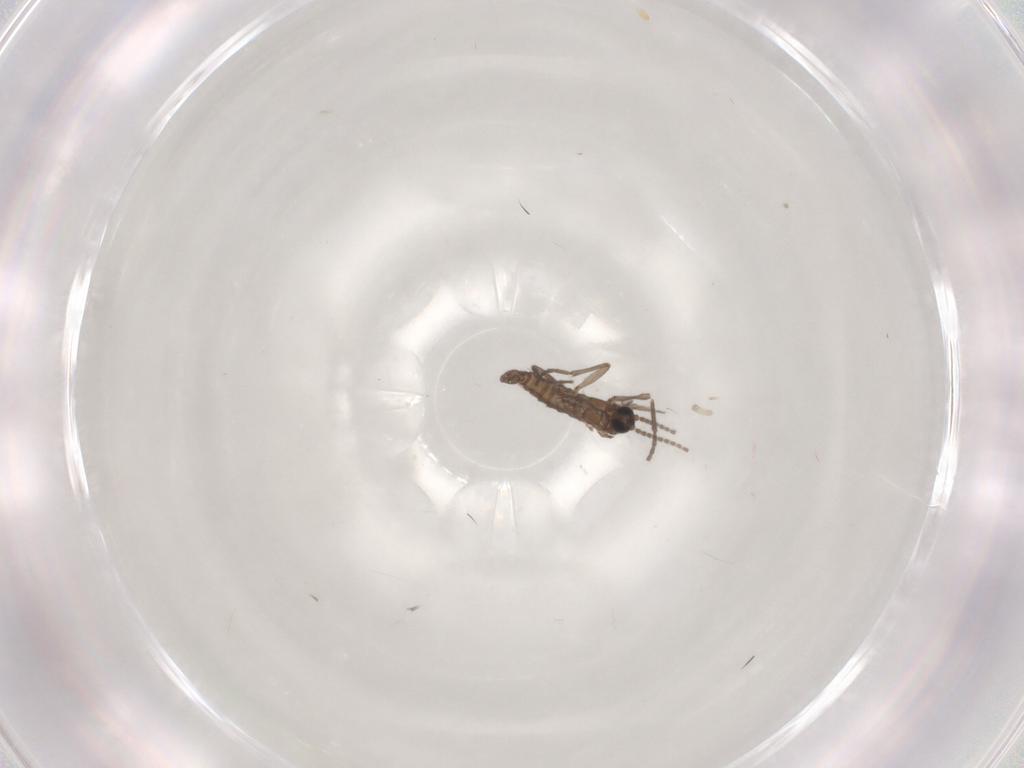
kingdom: Animalia
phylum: Arthropoda
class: Insecta
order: Diptera
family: Sciaridae
